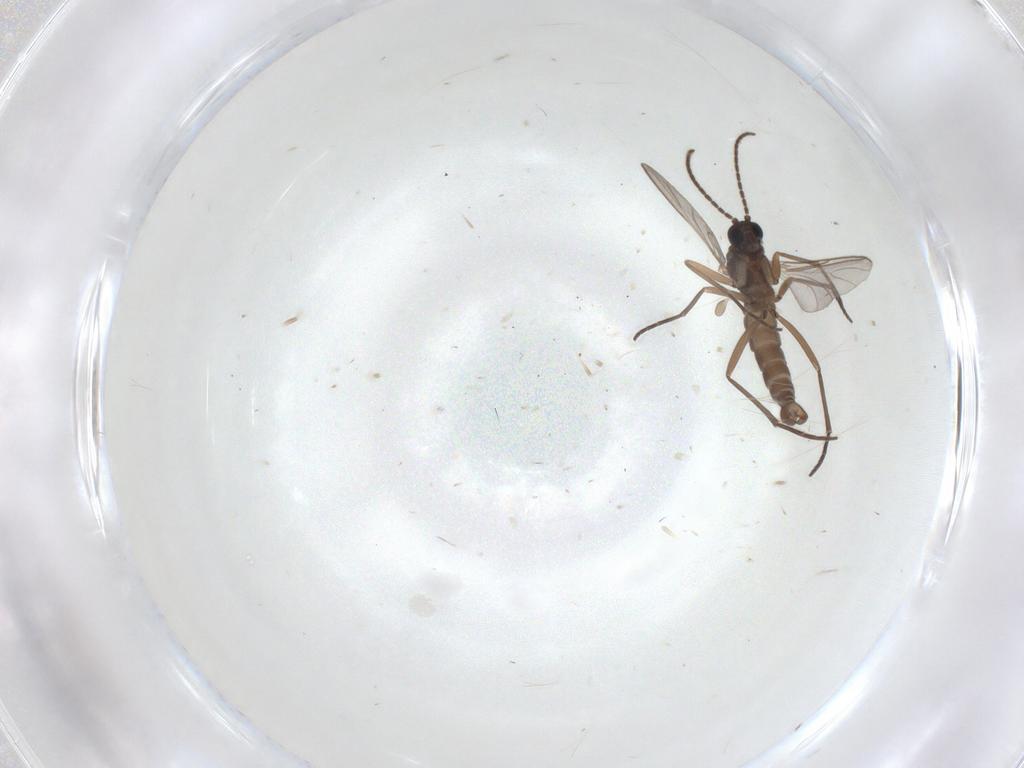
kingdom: Animalia
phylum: Arthropoda
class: Insecta
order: Diptera
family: Sciaridae
